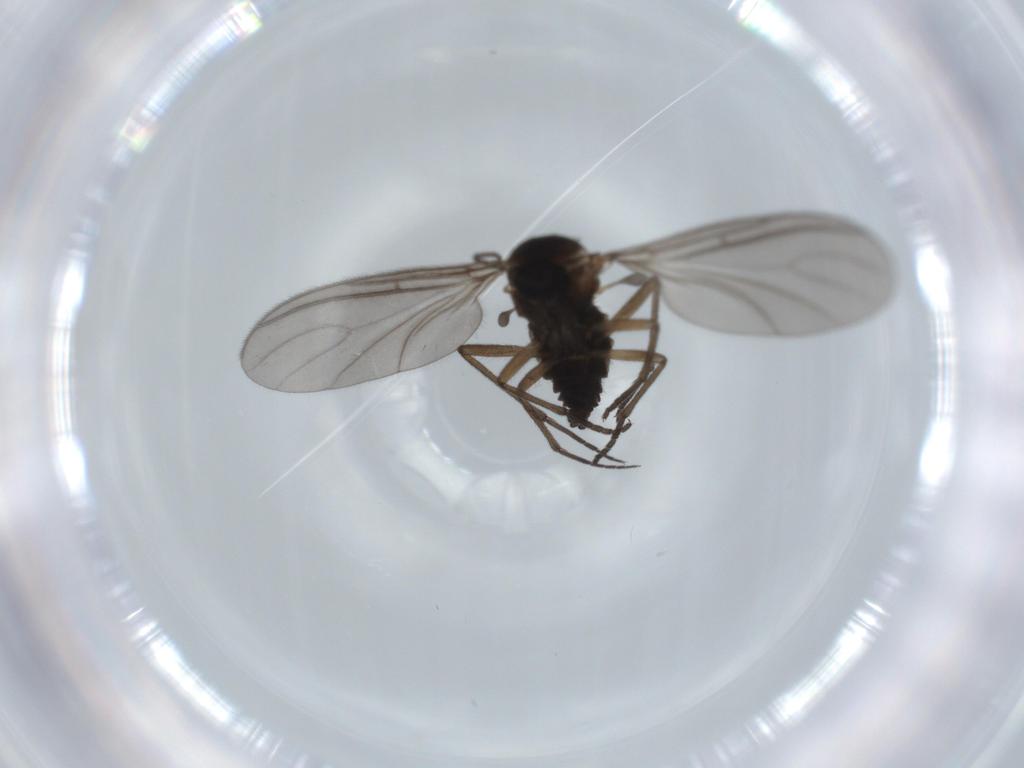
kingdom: Animalia
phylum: Arthropoda
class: Insecta
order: Diptera
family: Sciaridae
